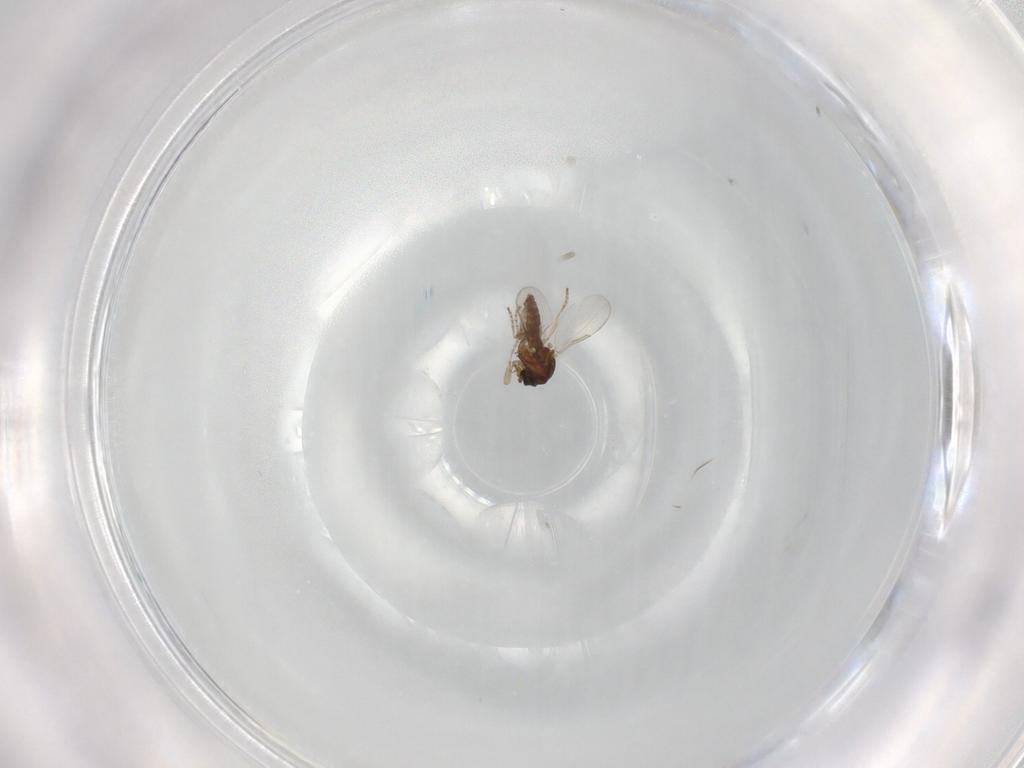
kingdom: Animalia
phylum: Arthropoda
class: Insecta
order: Diptera
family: Ceratopogonidae
